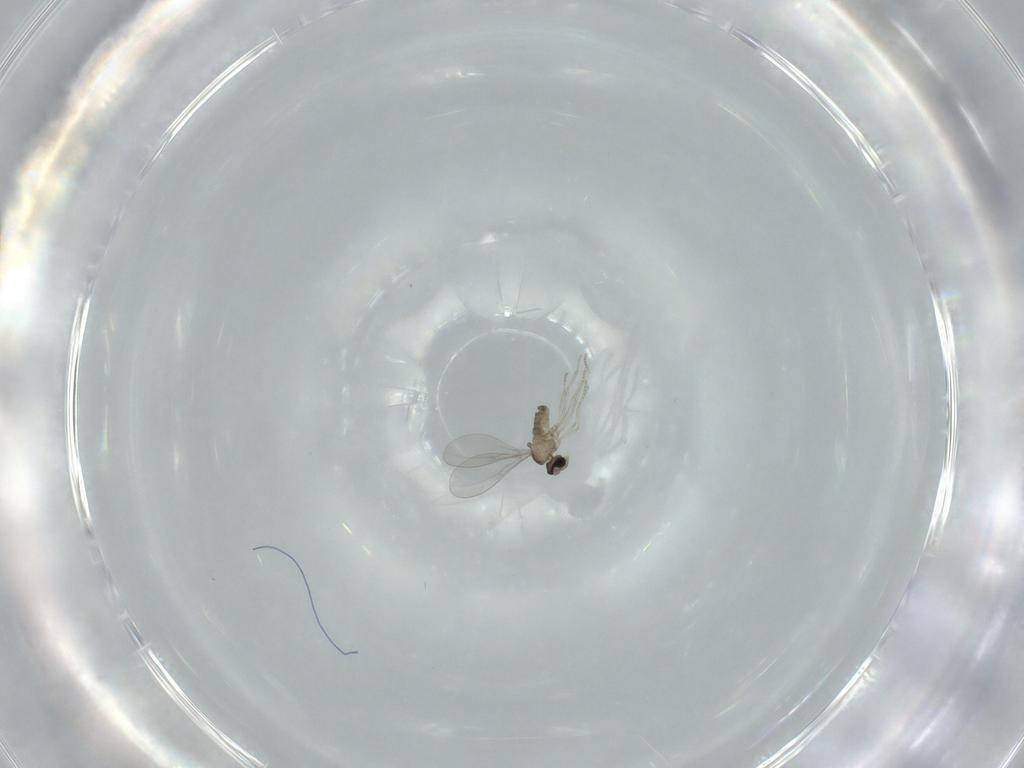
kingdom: Animalia
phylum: Arthropoda
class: Insecta
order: Diptera
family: Cecidomyiidae
